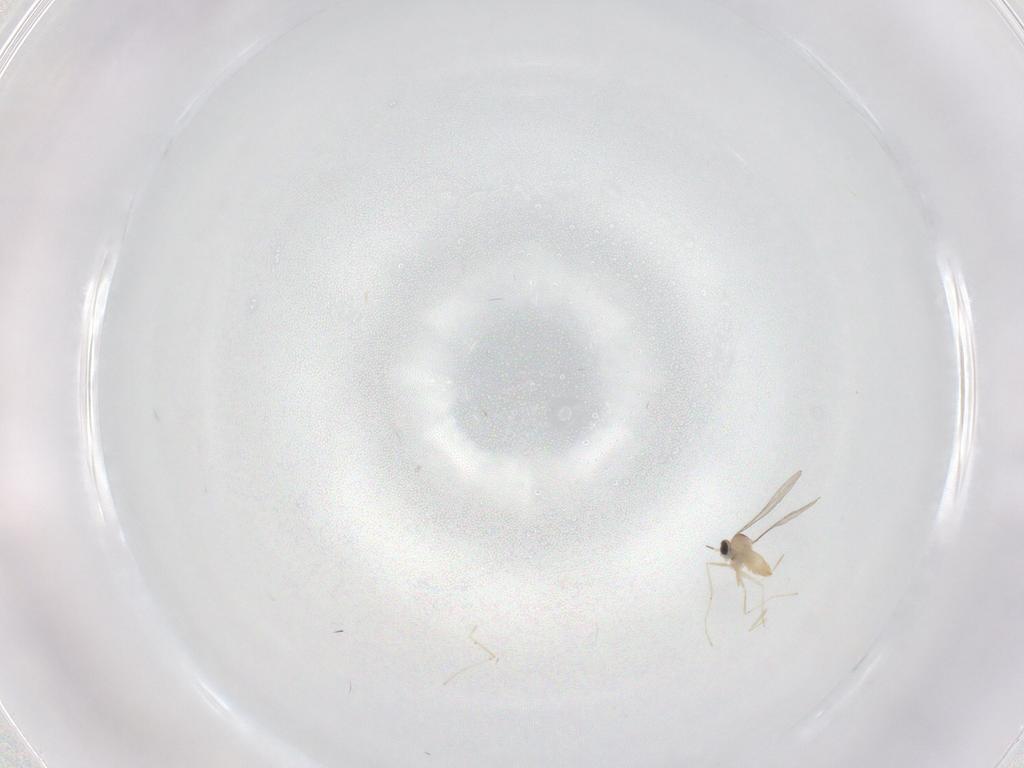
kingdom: Animalia
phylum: Arthropoda
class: Insecta
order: Diptera
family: Cecidomyiidae
